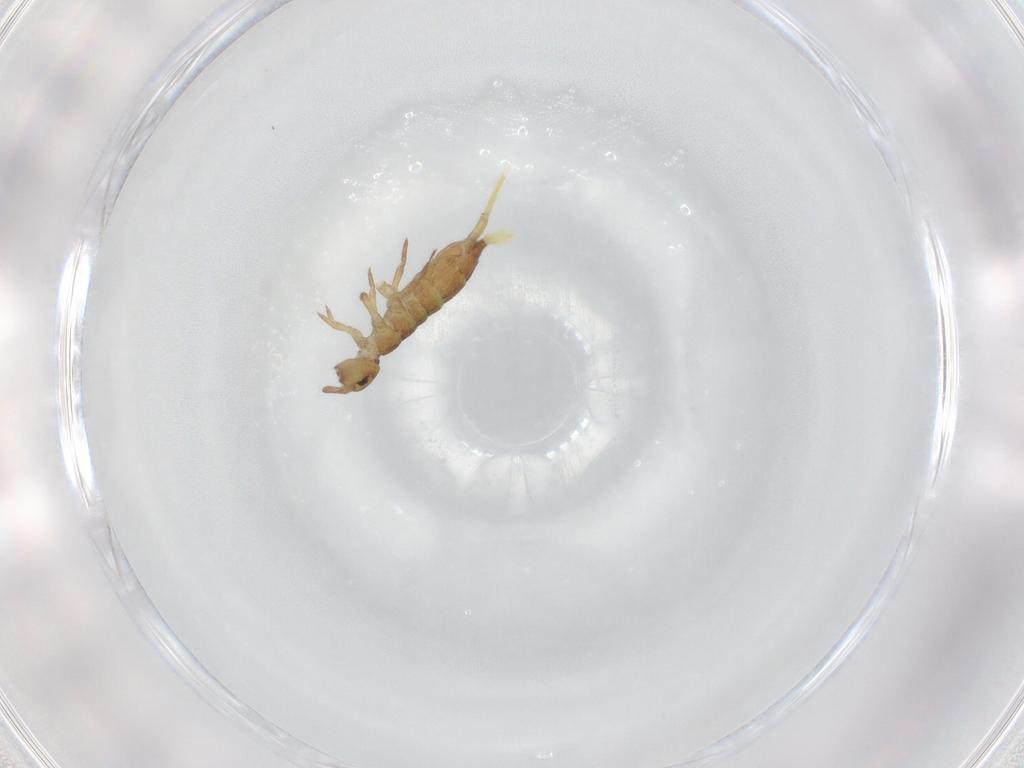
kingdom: Animalia
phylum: Arthropoda
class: Collembola
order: Entomobryomorpha
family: Isotomidae
